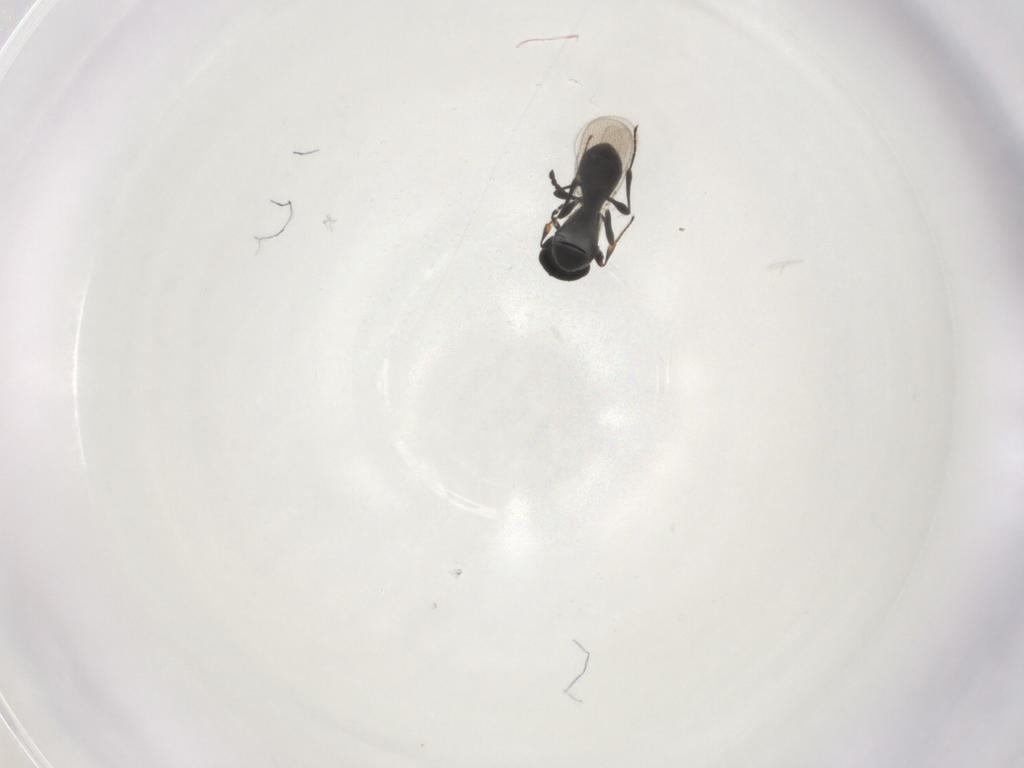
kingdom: Animalia
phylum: Arthropoda
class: Insecta
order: Hymenoptera
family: Platygastridae
